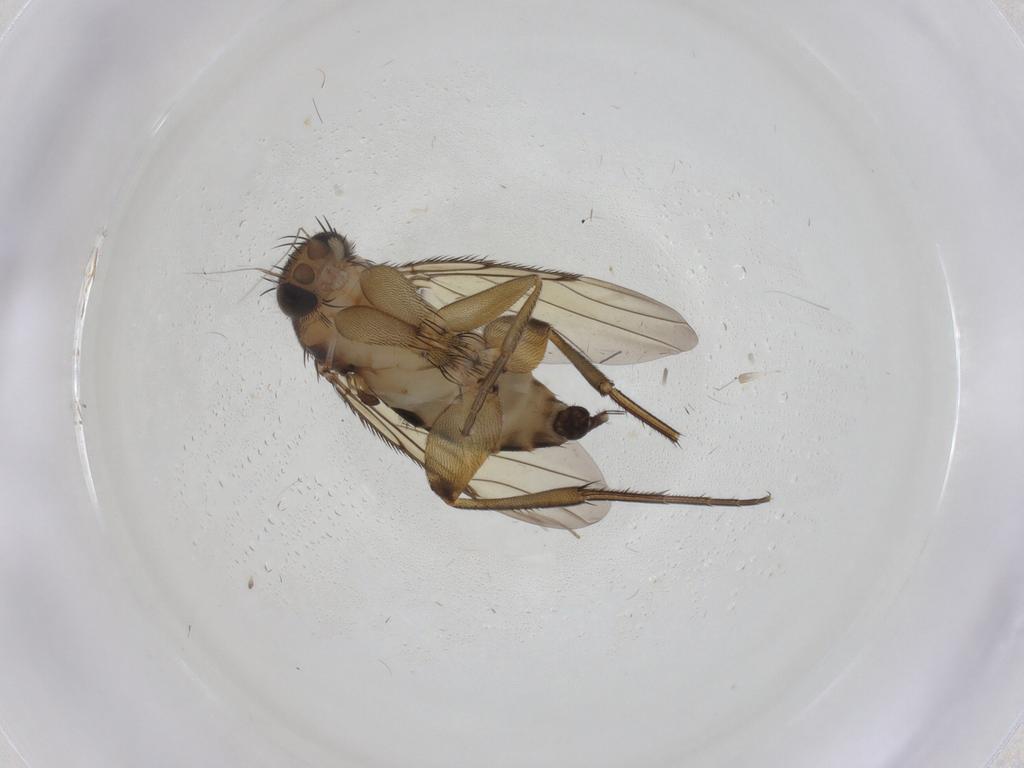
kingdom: Animalia
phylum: Arthropoda
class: Insecta
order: Diptera
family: Phoridae
